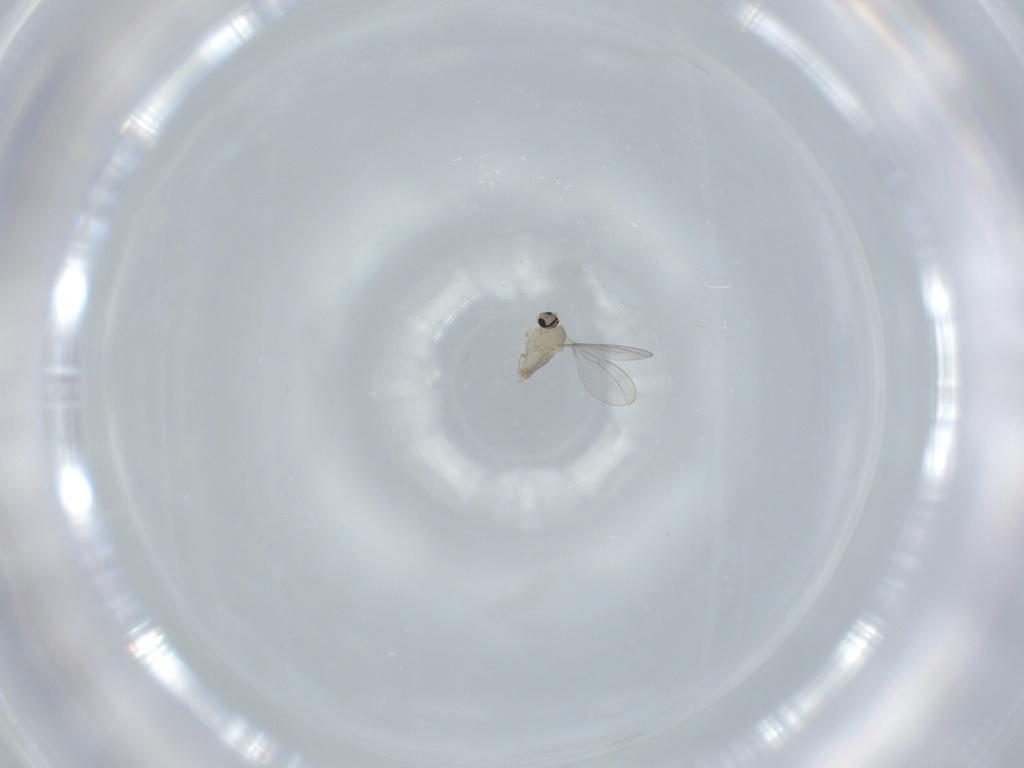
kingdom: Animalia
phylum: Arthropoda
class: Insecta
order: Diptera
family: Cecidomyiidae
